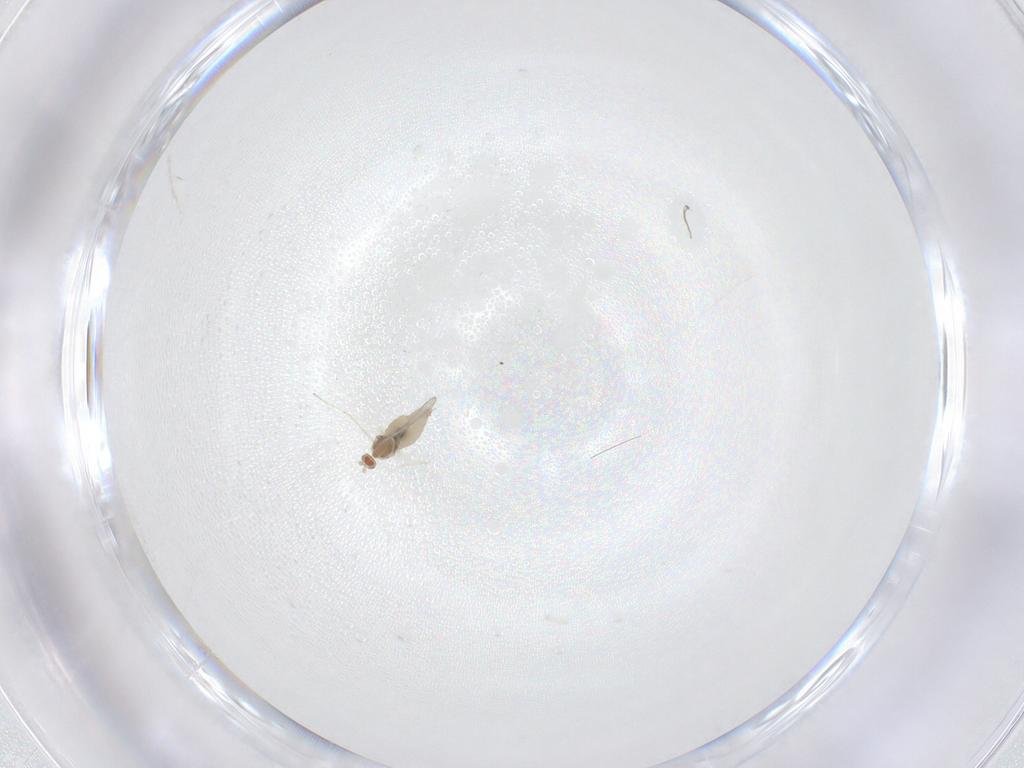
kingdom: Animalia
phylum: Arthropoda
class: Insecta
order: Diptera
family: Cecidomyiidae
